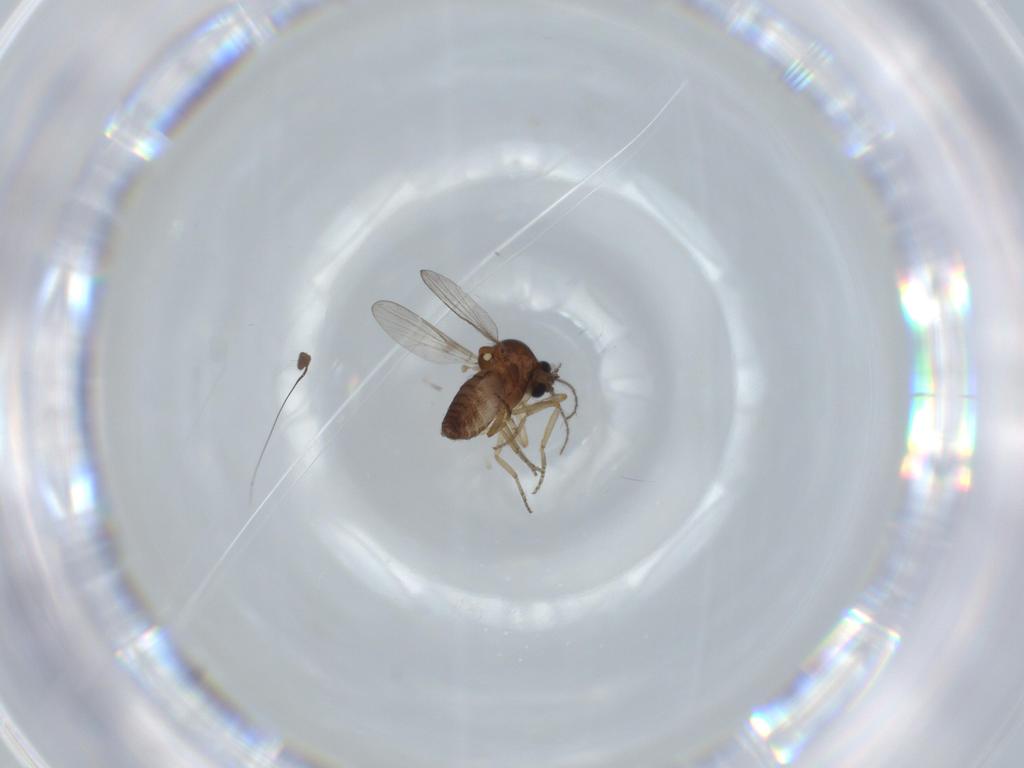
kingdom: Animalia
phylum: Arthropoda
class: Insecta
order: Diptera
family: Ceratopogonidae
